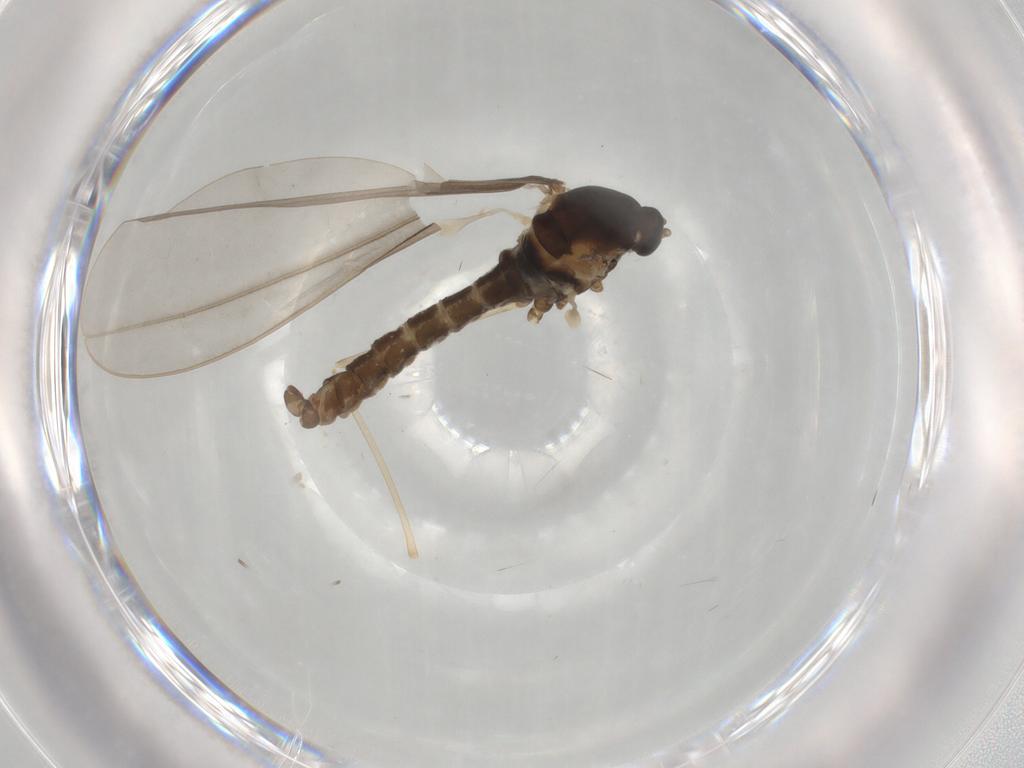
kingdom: Animalia
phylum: Arthropoda
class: Insecta
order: Diptera
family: Cecidomyiidae
